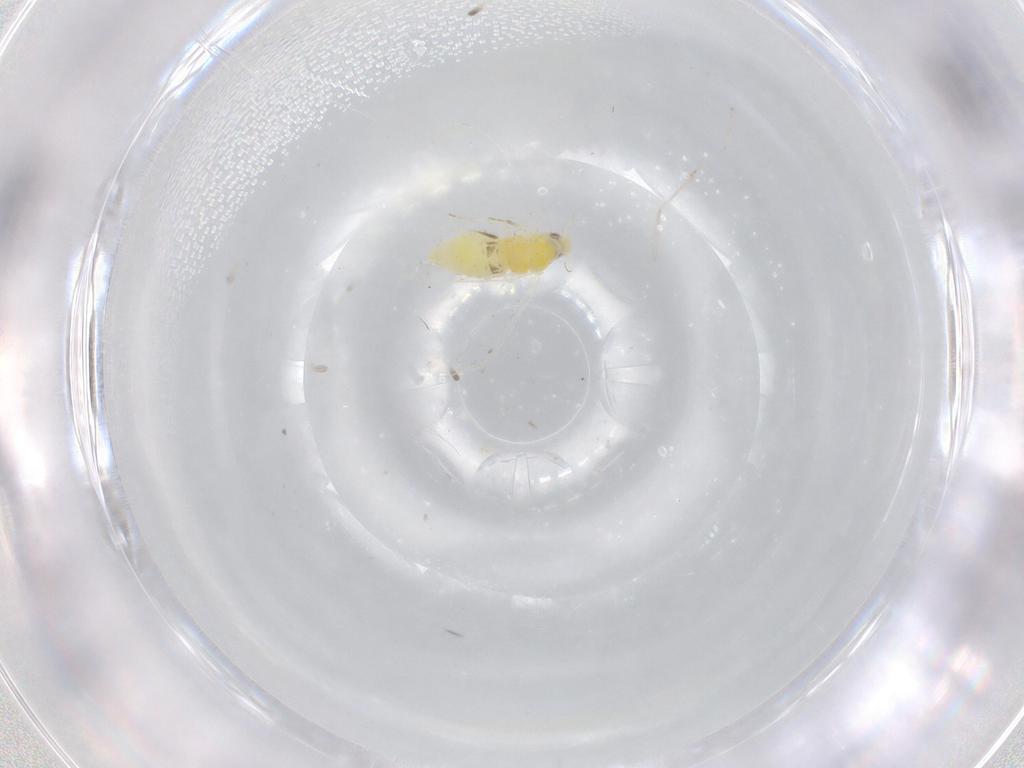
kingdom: Animalia
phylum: Arthropoda
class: Insecta
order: Hemiptera
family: Aleyrodidae
